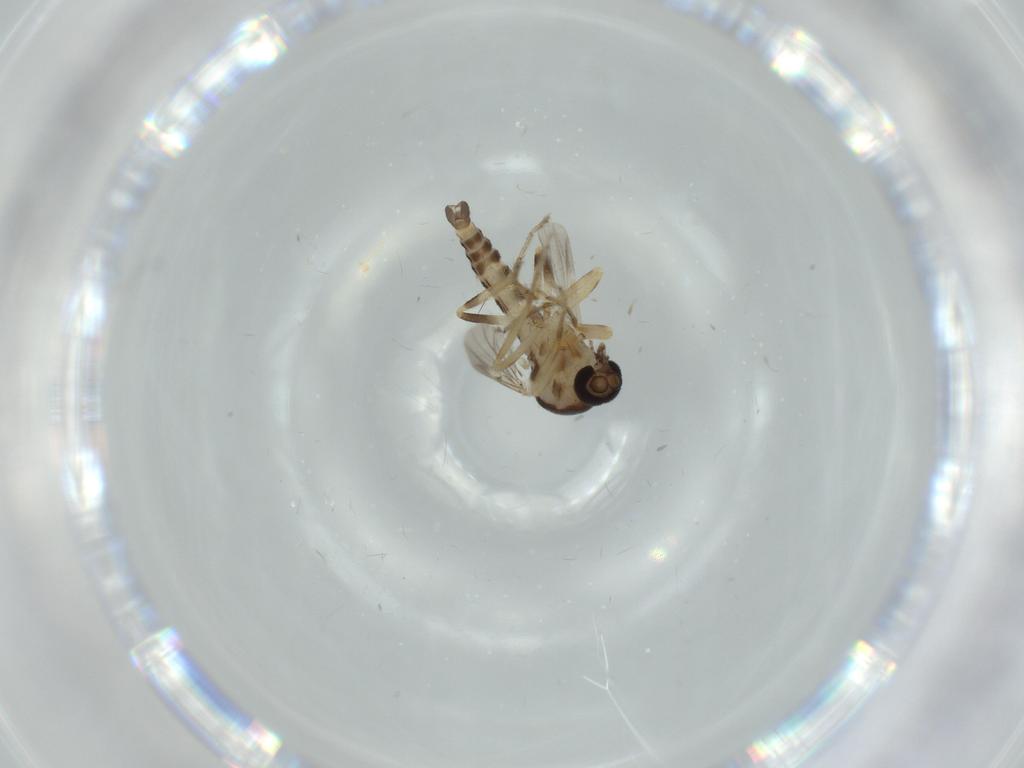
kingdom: Animalia
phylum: Arthropoda
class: Insecta
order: Diptera
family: Ceratopogonidae
